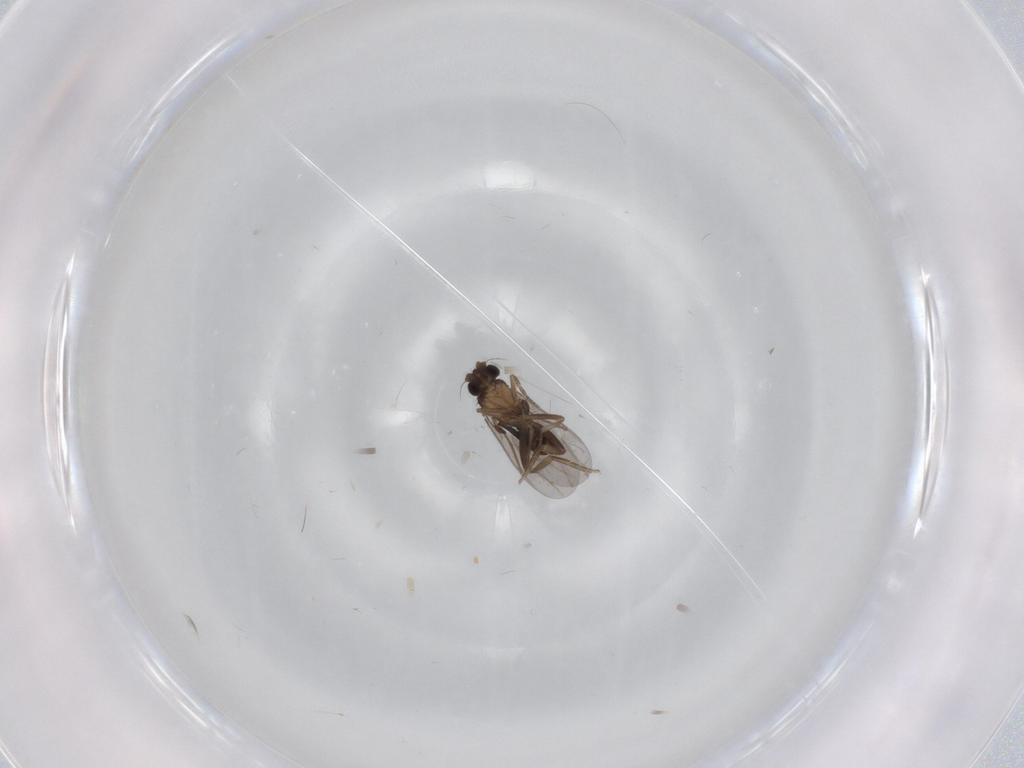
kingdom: Animalia
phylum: Arthropoda
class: Insecta
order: Diptera
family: Phoridae
